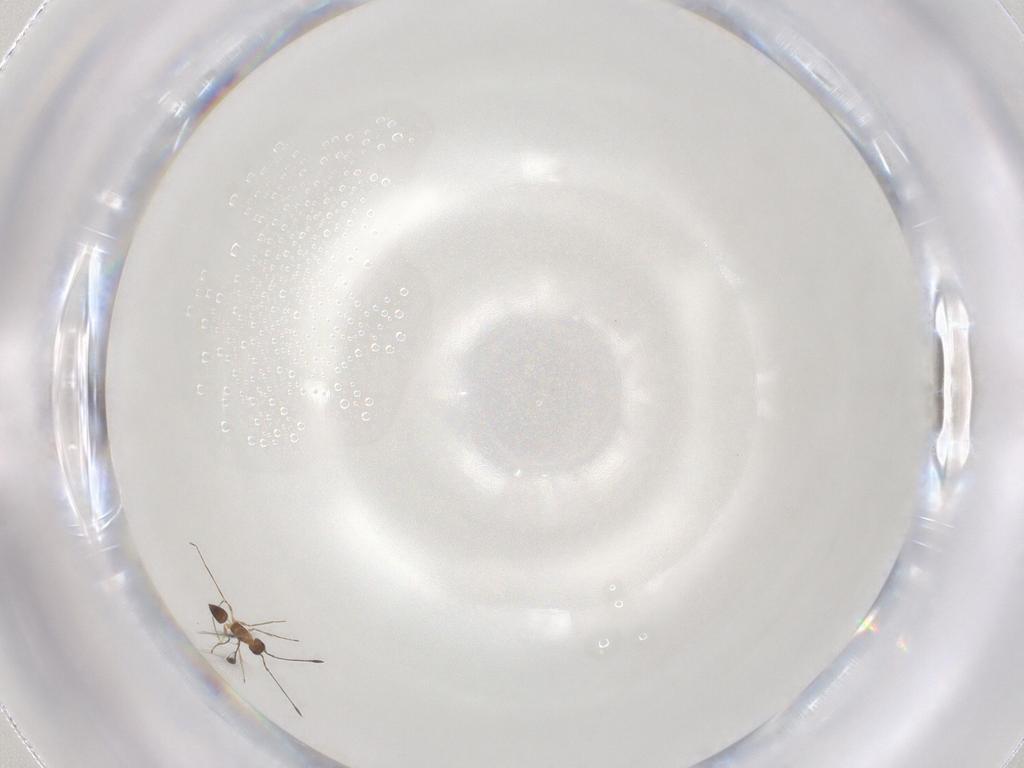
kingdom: Animalia
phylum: Arthropoda
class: Insecta
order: Hymenoptera
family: Mymaridae
